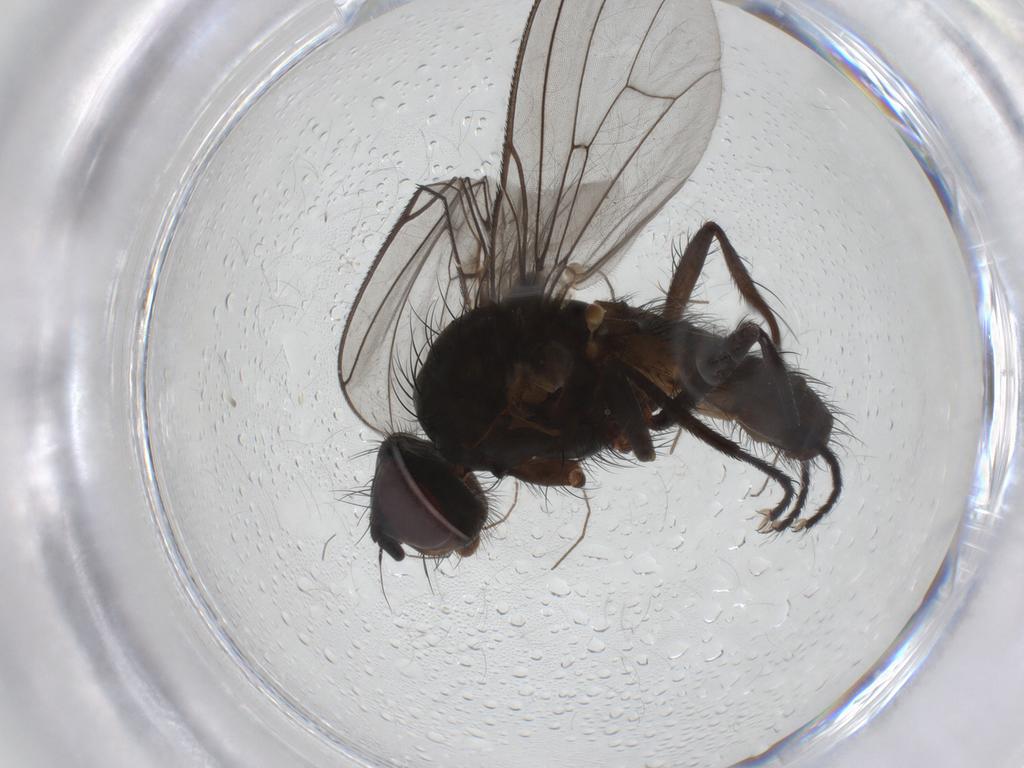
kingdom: Animalia
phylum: Arthropoda
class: Insecta
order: Diptera
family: Anthomyiidae
